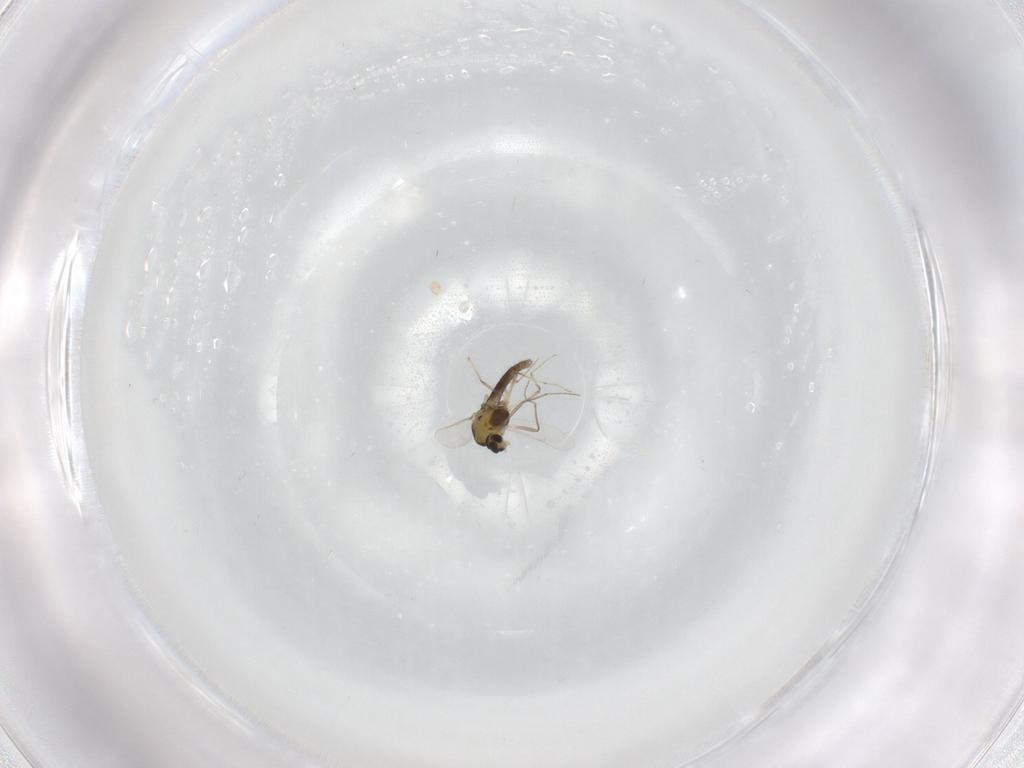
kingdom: Animalia
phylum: Arthropoda
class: Insecta
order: Diptera
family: Chironomidae
